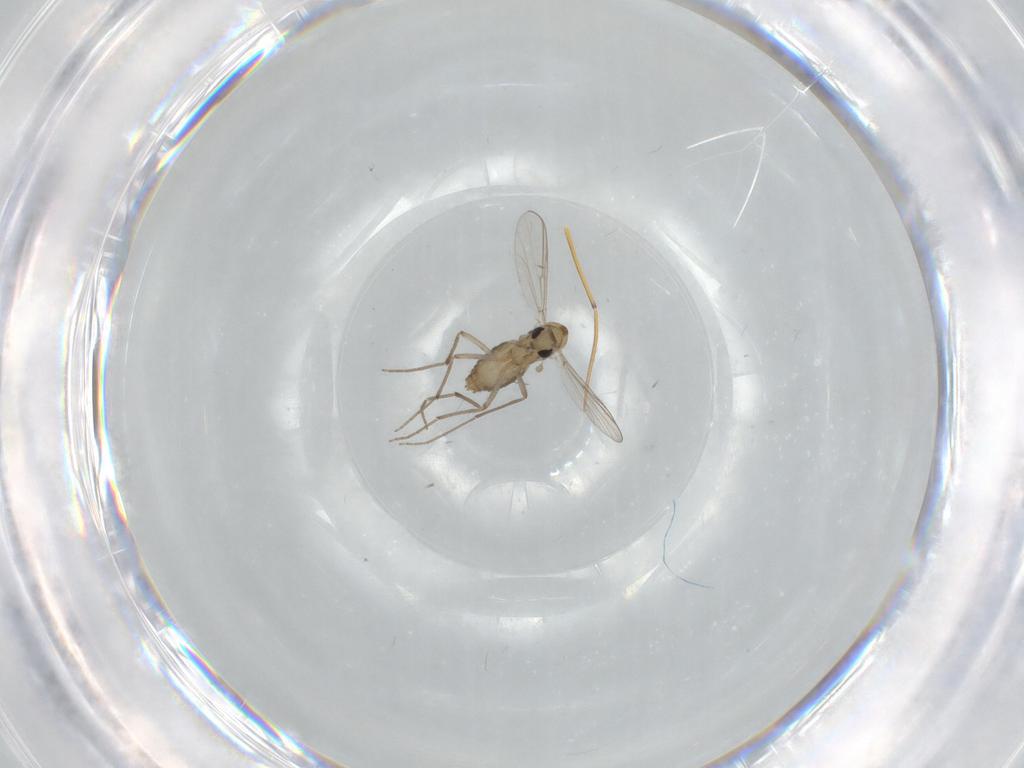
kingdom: Animalia
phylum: Arthropoda
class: Insecta
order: Diptera
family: Chironomidae
